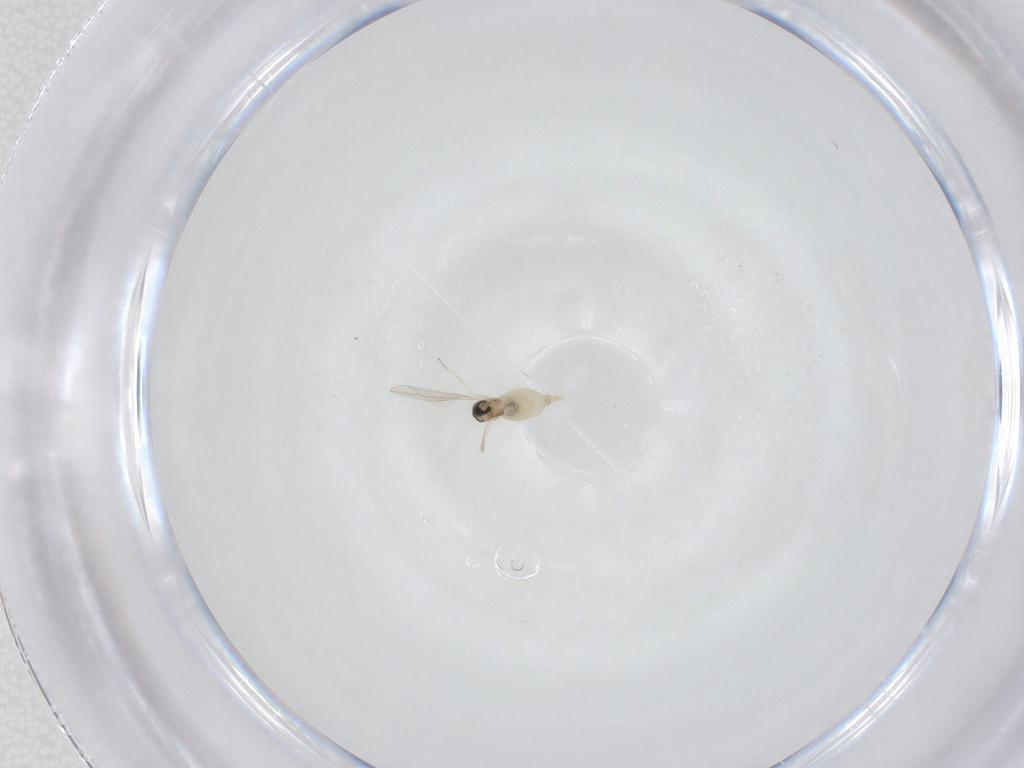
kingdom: Animalia
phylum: Arthropoda
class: Insecta
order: Diptera
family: Cecidomyiidae
